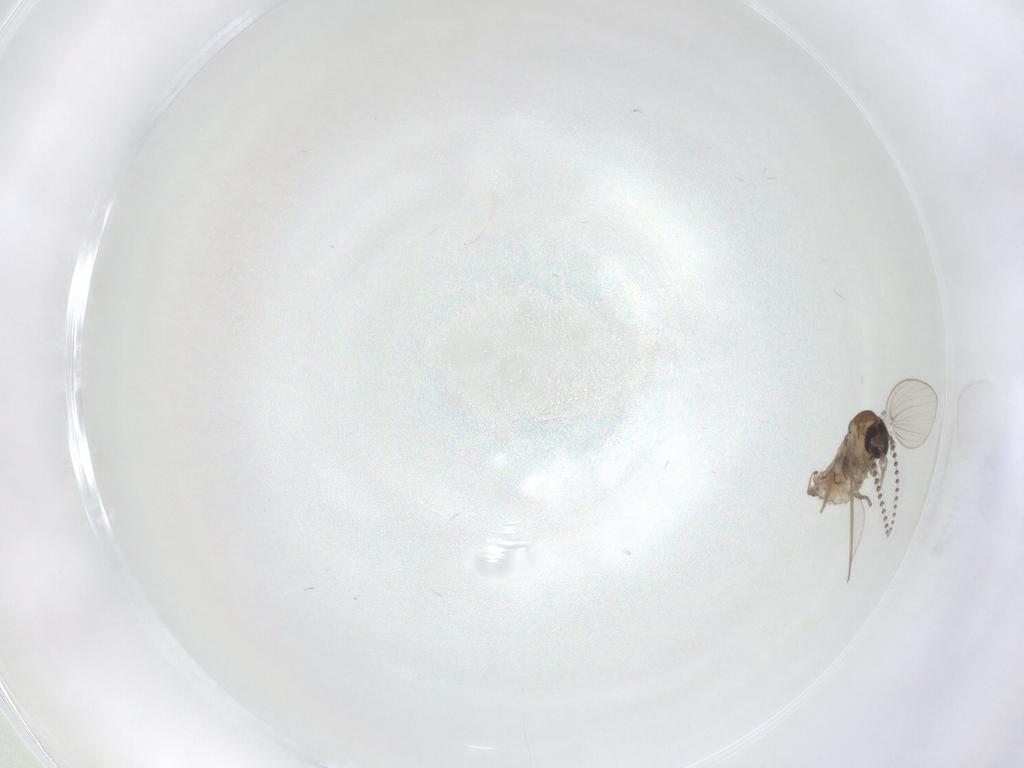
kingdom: Animalia
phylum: Arthropoda
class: Insecta
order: Diptera
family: Psychodidae
